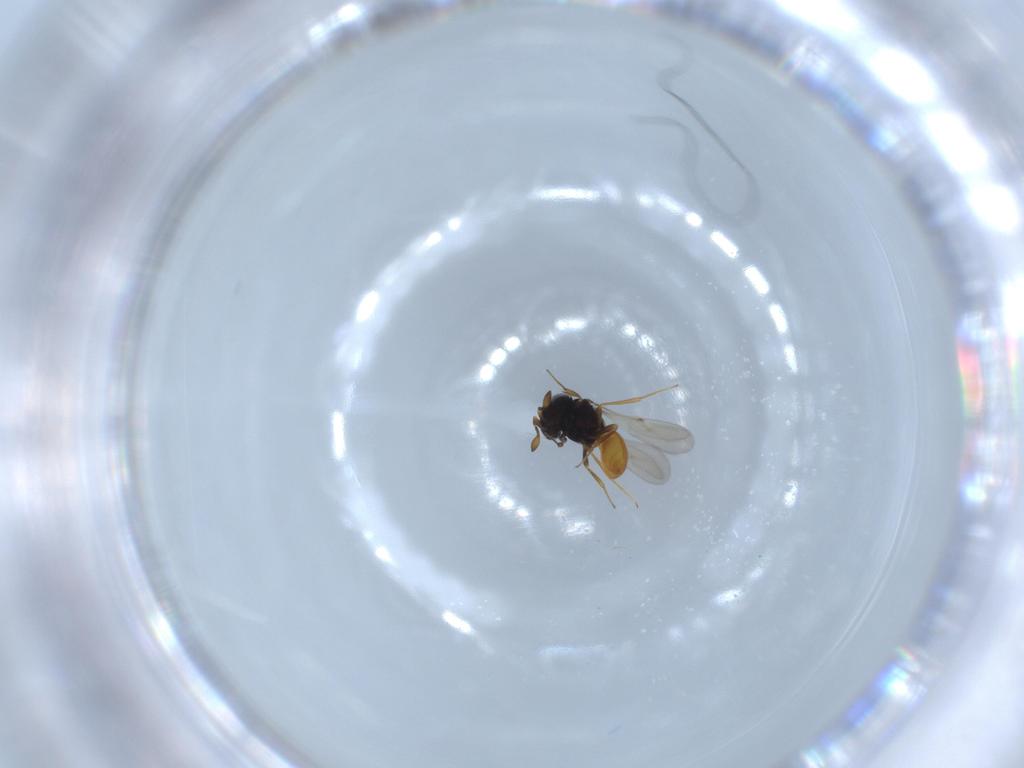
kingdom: Animalia
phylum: Arthropoda
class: Insecta
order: Hymenoptera
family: Scelionidae
